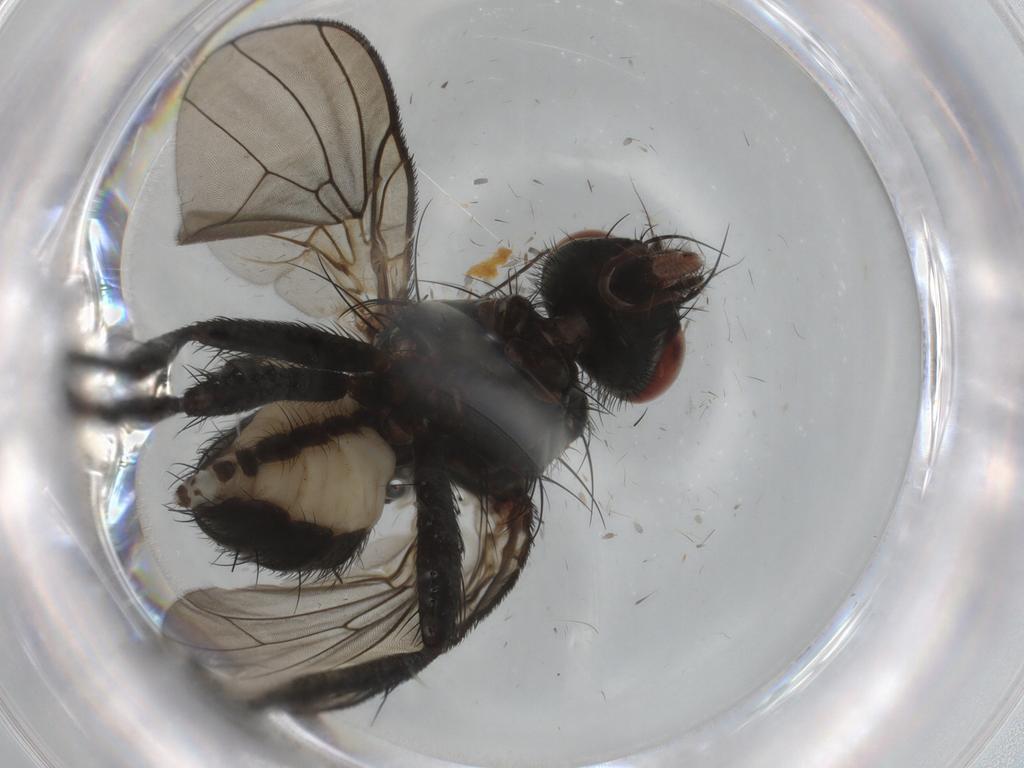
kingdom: Animalia
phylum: Arthropoda
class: Insecta
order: Diptera
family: Anthomyiidae
